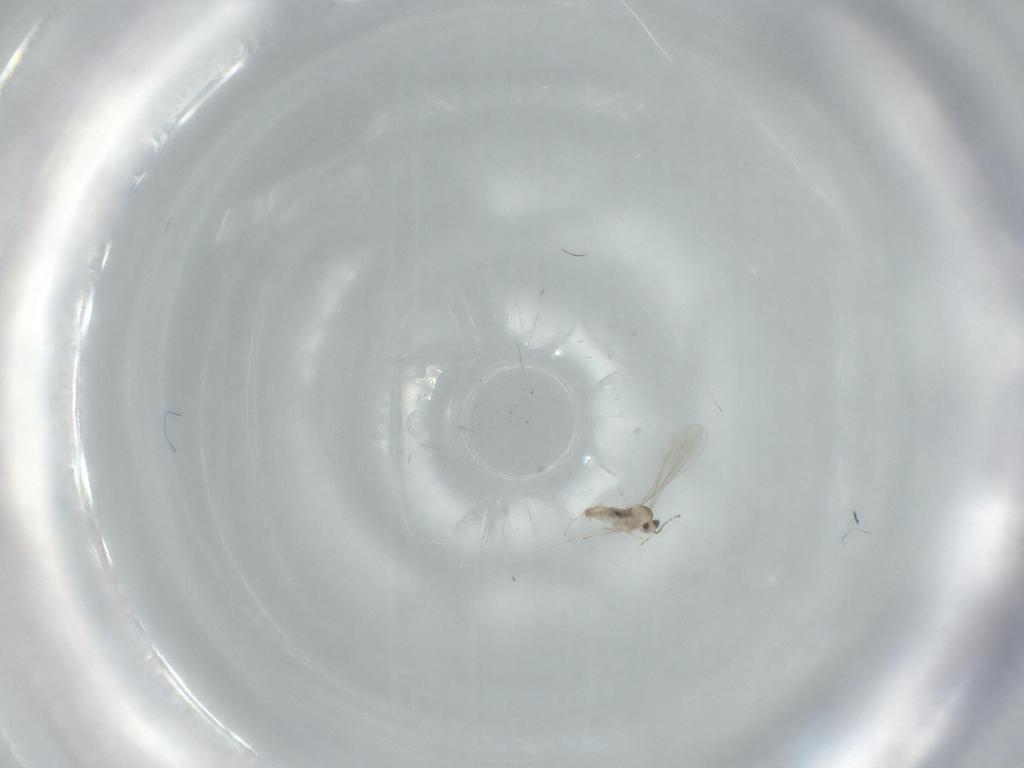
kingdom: Animalia
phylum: Arthropoda
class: Insecta
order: Diptera
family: Cecidomyiidae
